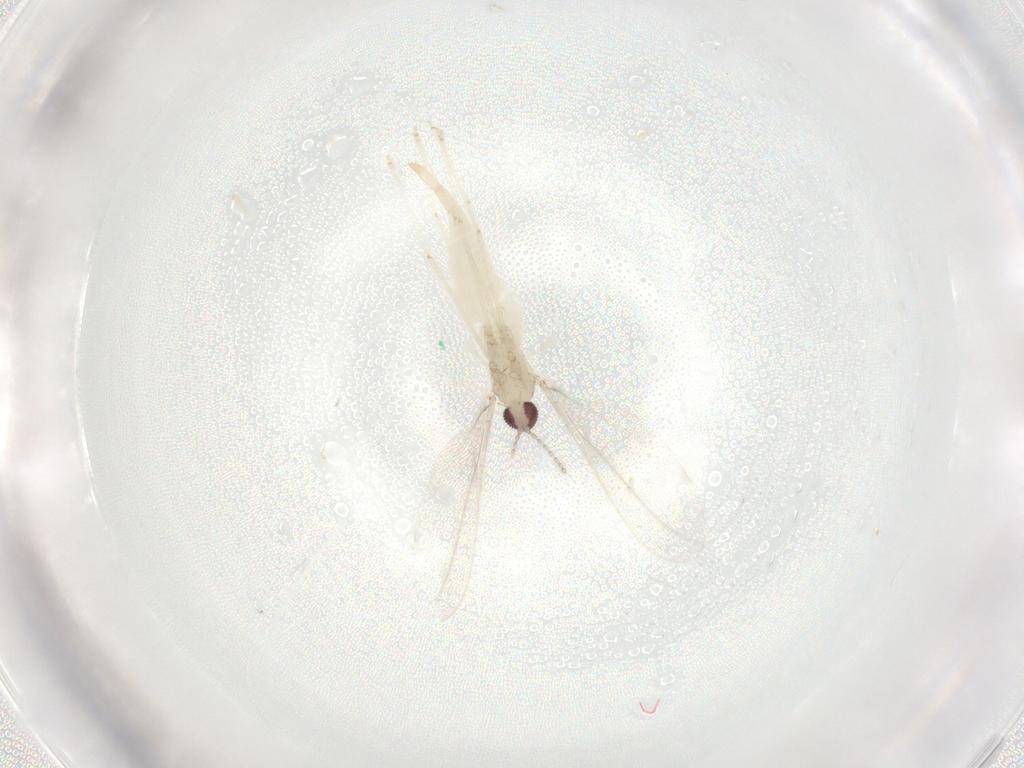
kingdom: Animalia
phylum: Arthropoda
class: Insecta
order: Diptera
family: Cecidomyiidae
